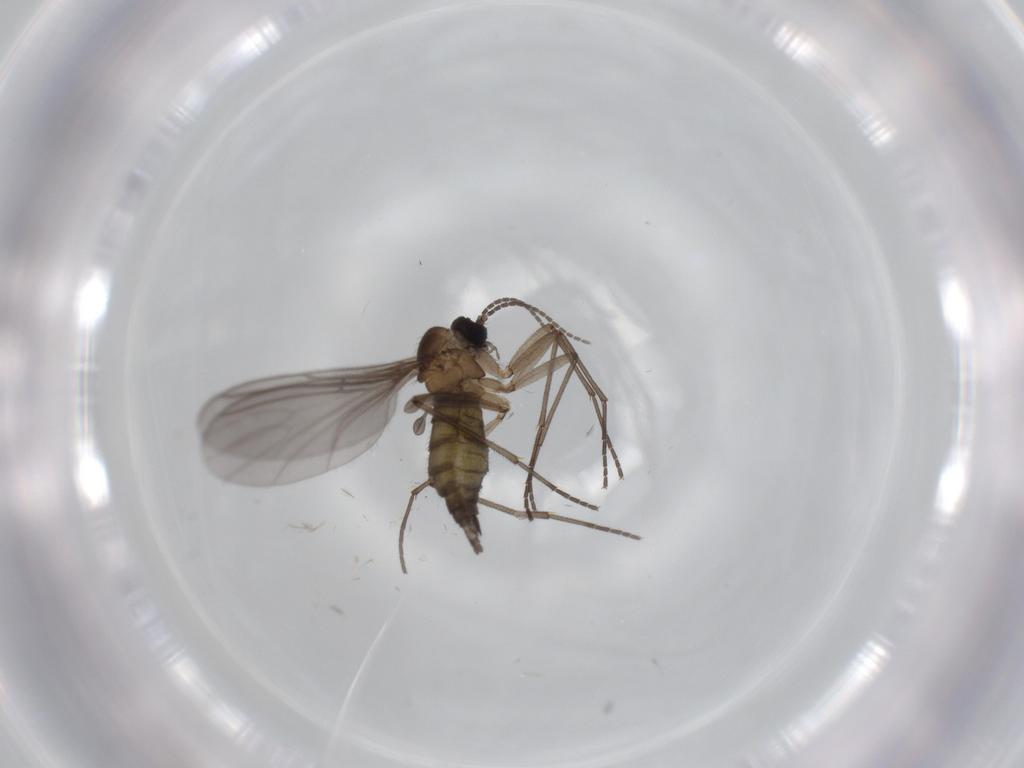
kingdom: Animalia
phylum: Arthropoda
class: Insecta
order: Diptera
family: Sciaridae
